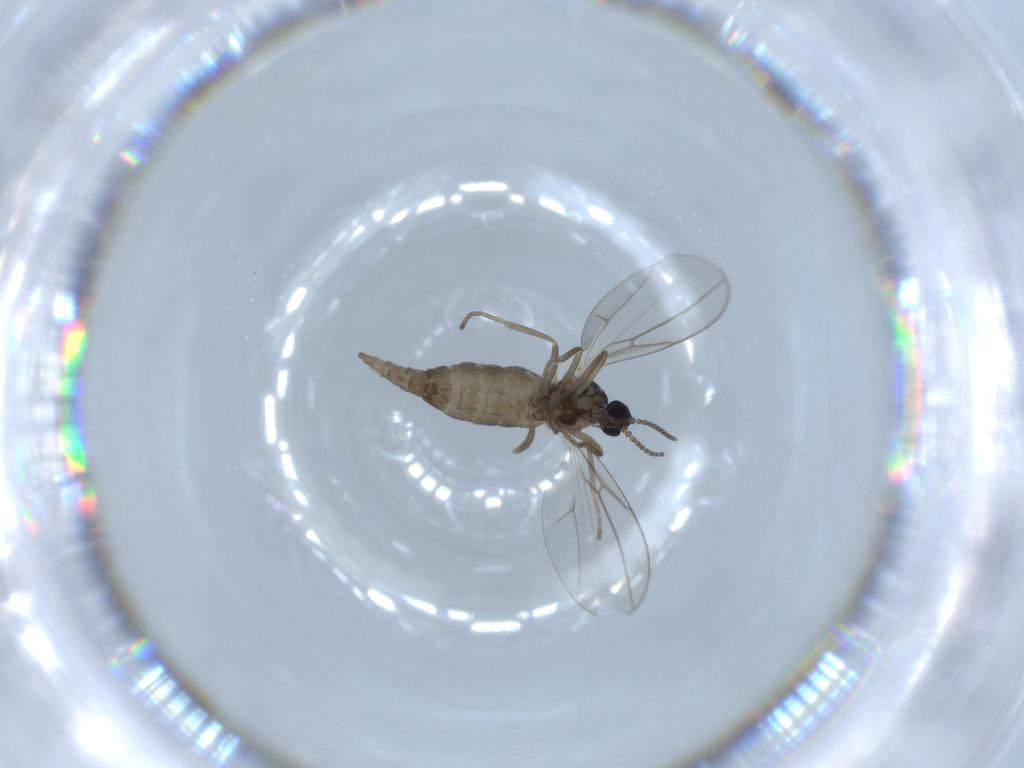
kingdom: Animalia
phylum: Arthropoda
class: Insecta
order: Diptera
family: Cecidomyiidae
